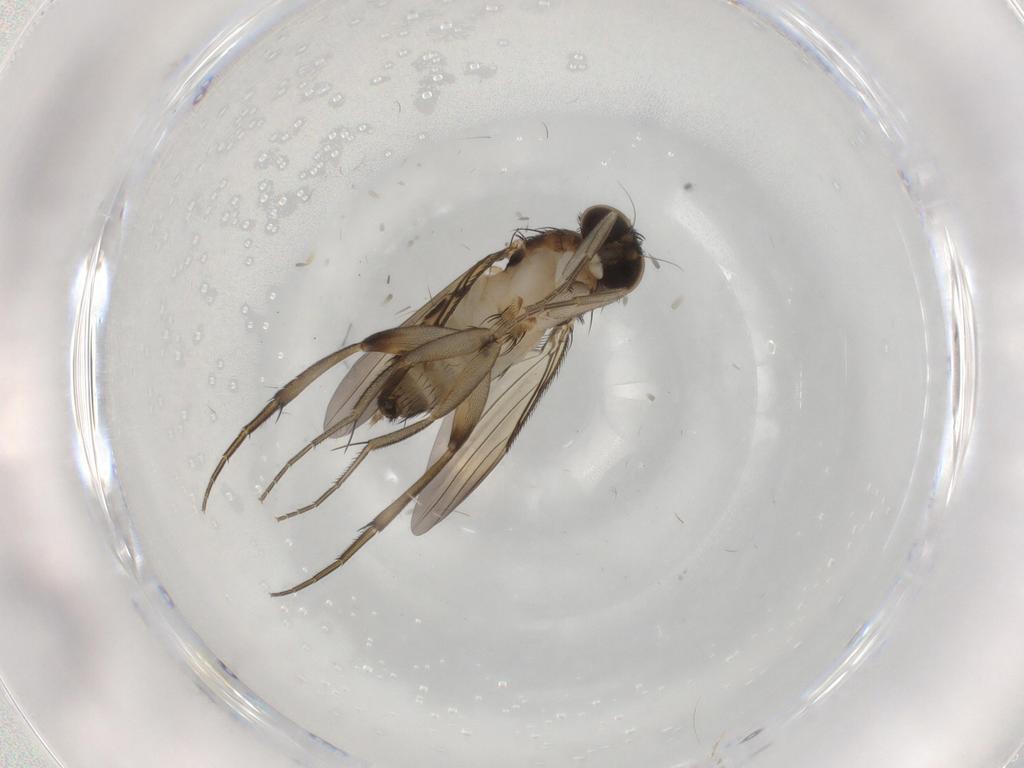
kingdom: Animalia
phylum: Arthropoda
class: Insecta
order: Diptera
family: Phoridae
